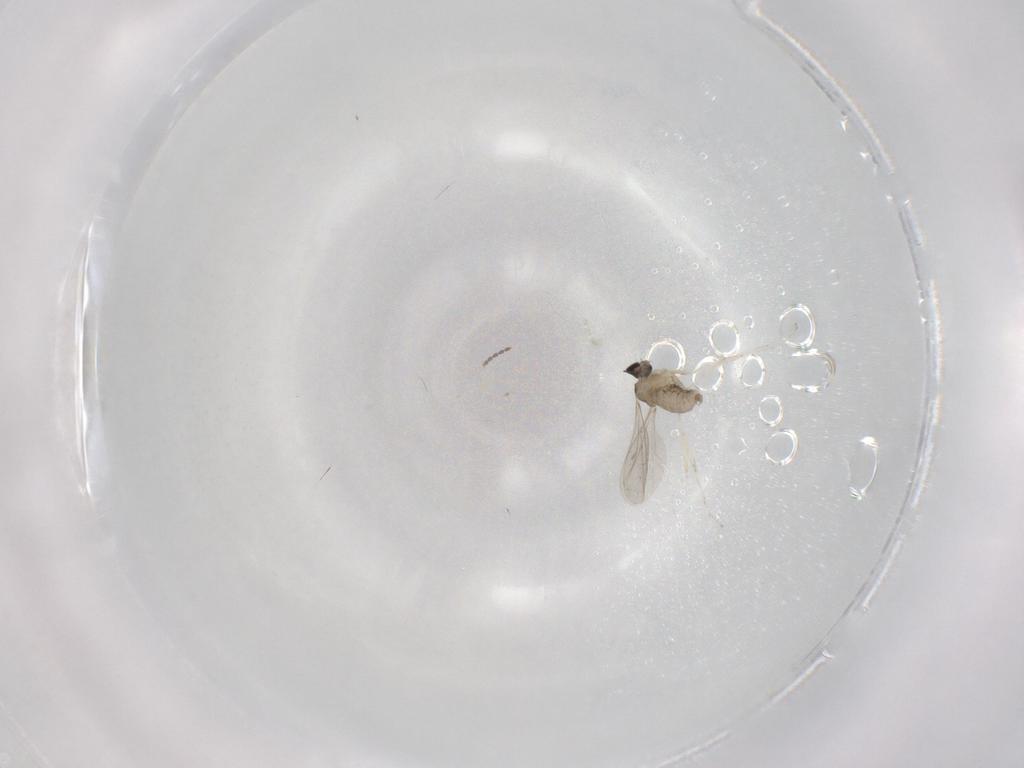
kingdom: Animalia
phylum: Arthropoda
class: Insecta
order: Diptera
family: Cecidomyiidae
